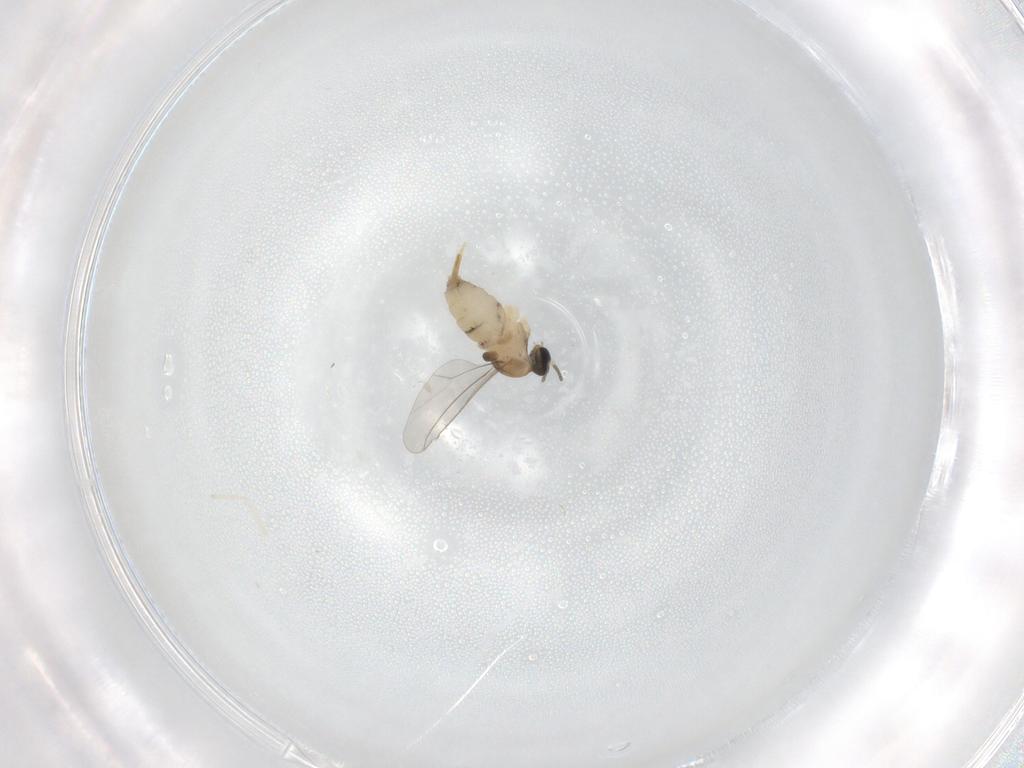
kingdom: Animalia
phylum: Arthropoda
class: Insecta
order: Diptera
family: Cecidomyiidae
